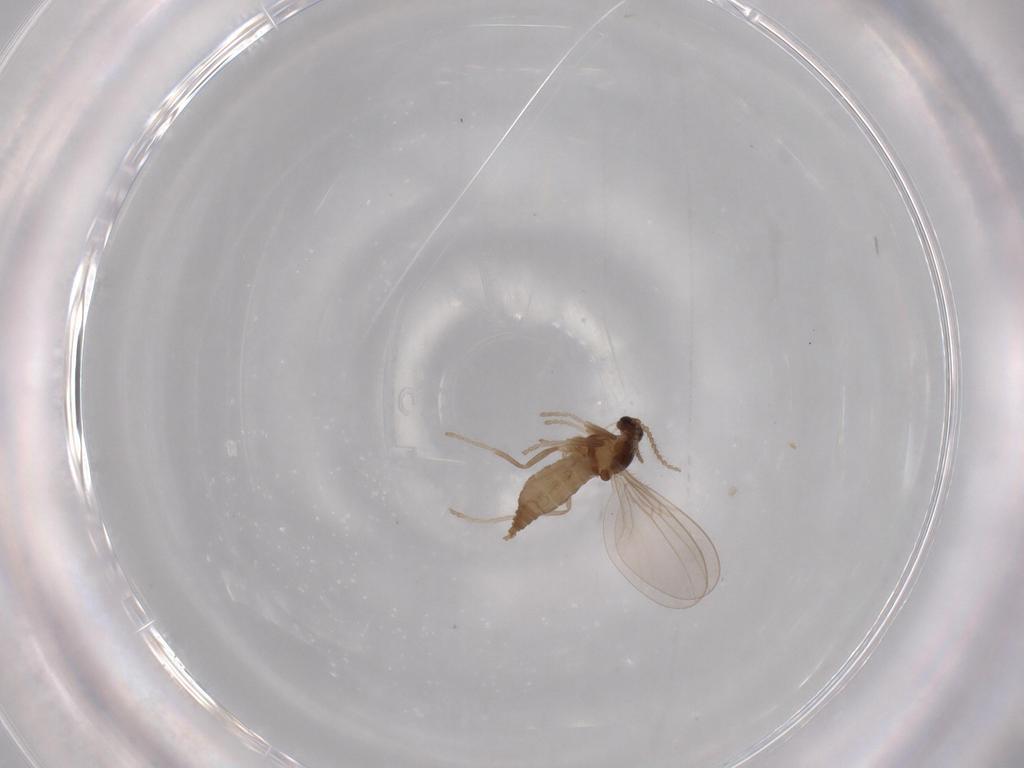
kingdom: Animalia
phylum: Arthropoda
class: Insecta
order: Diptera
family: Cecidomyiidae
